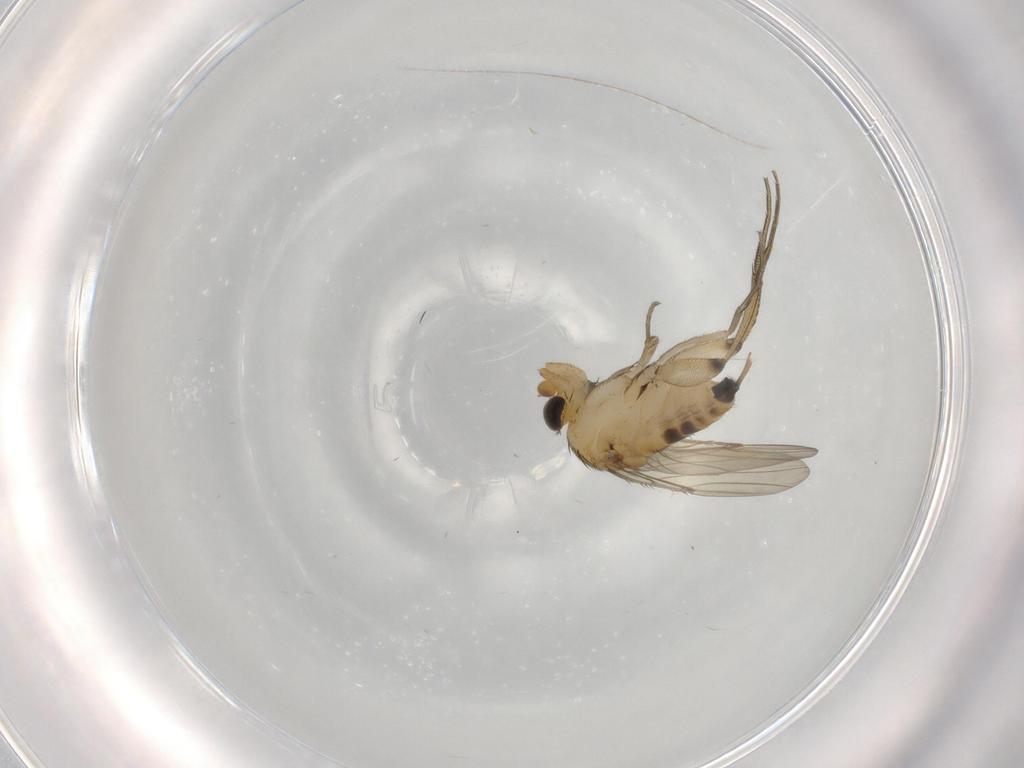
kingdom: Animalia
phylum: Arthropoda
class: Insecta
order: Diptera
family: Phoridae
